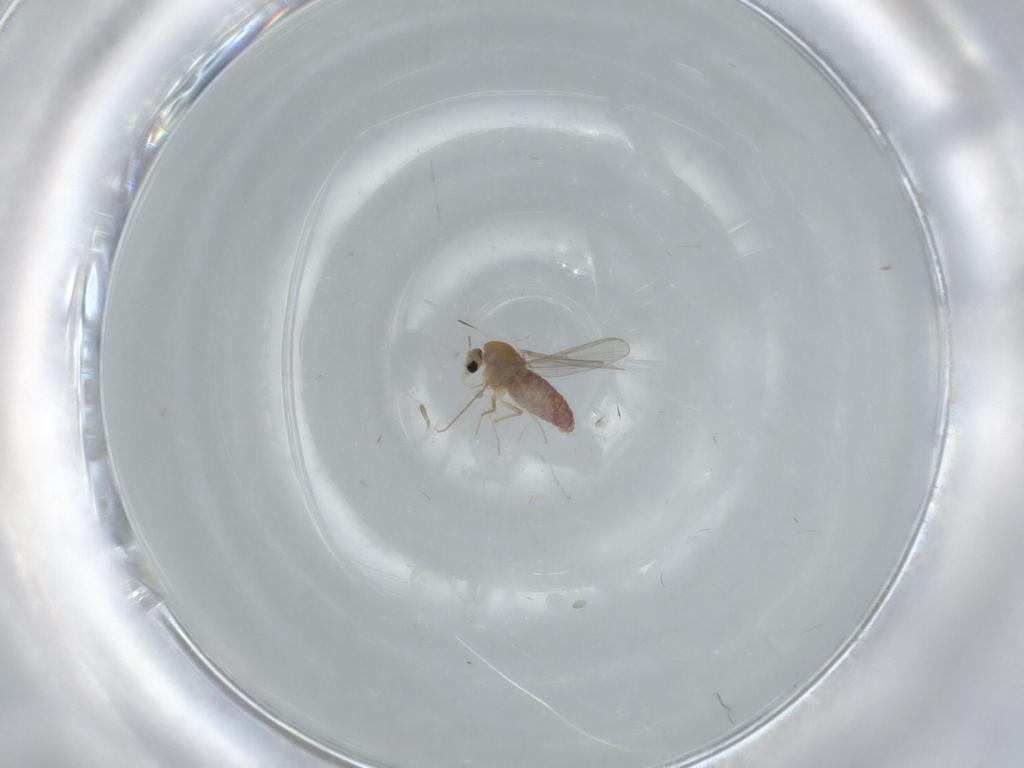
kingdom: Animalia
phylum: Arthropoda
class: Insecta
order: Diptera
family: Chironomidae
